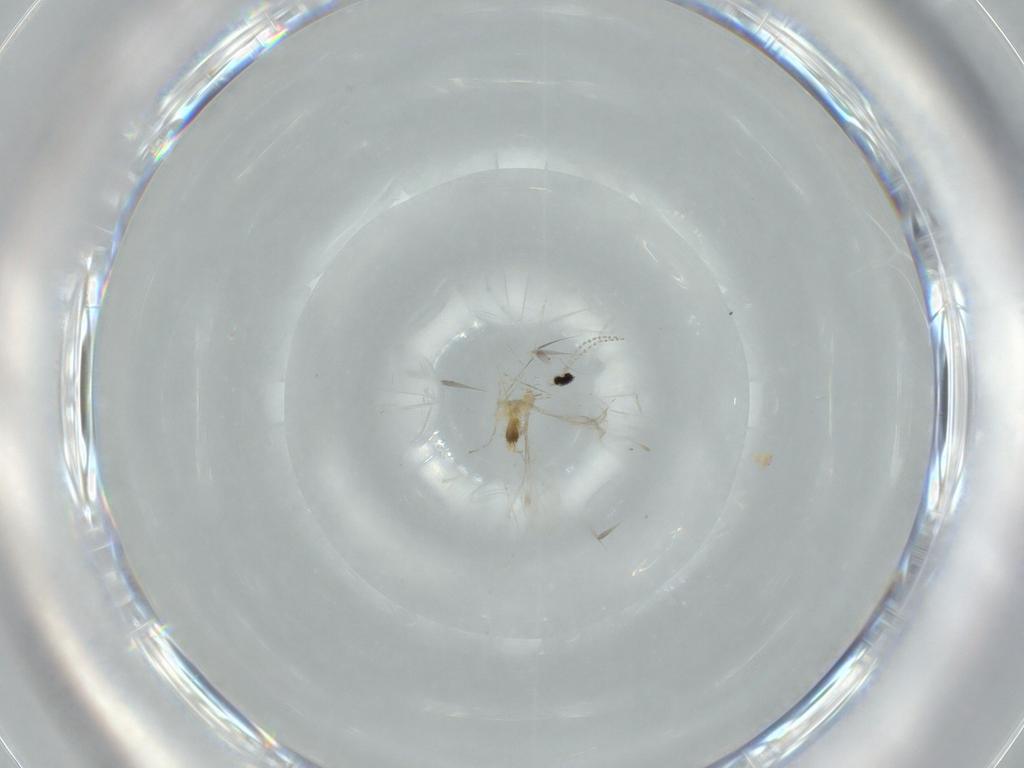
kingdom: Animalia
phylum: Arthropoda
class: Insecta
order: Diptera
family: Cecidomyiidae
